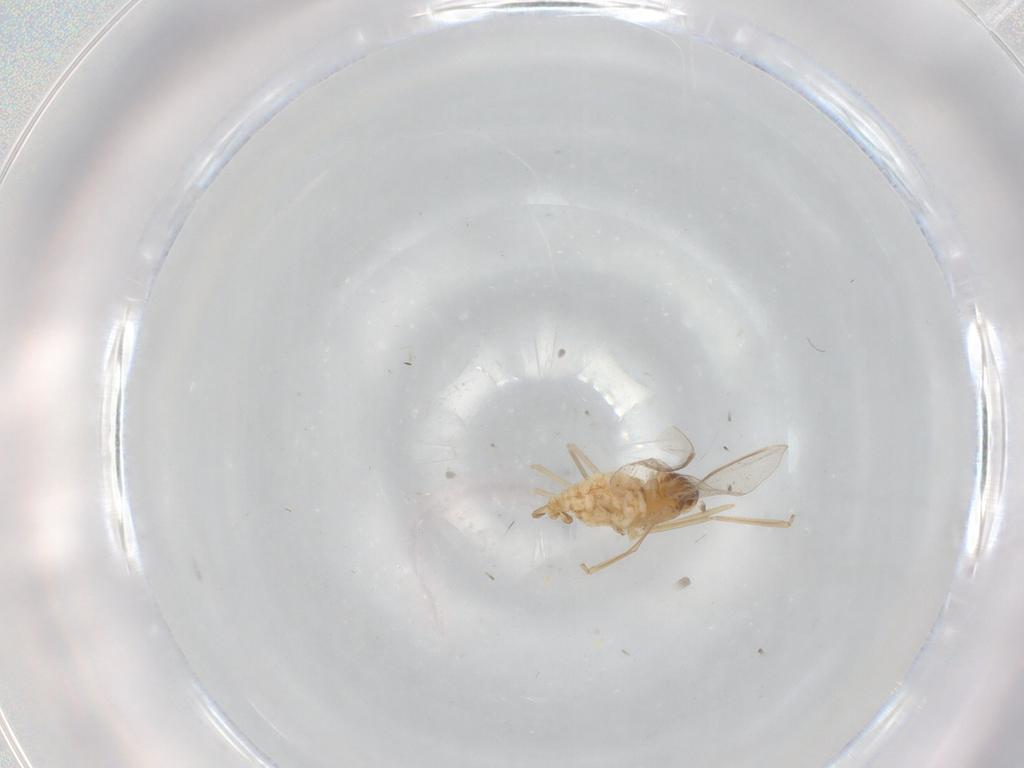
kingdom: Animalia
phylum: Arthropoda
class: Insecta
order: Diptera
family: Cecidomyiidae
